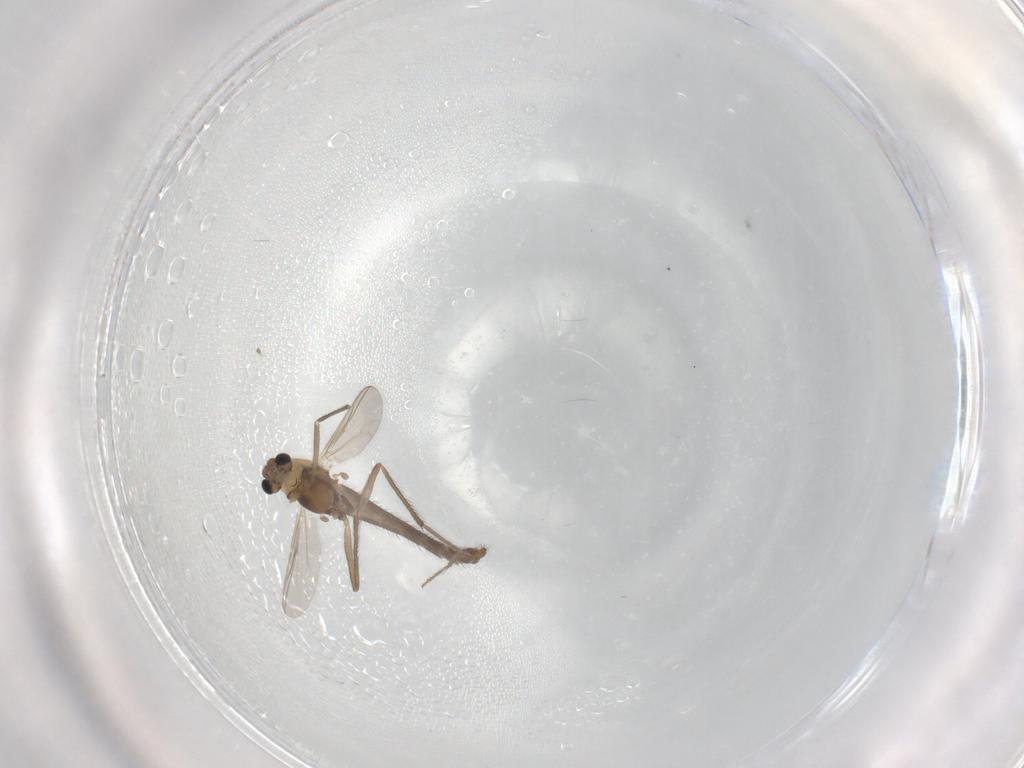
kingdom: Animalia
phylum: Arthropoda
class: Insecta
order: Diptera
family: Chironomidae
